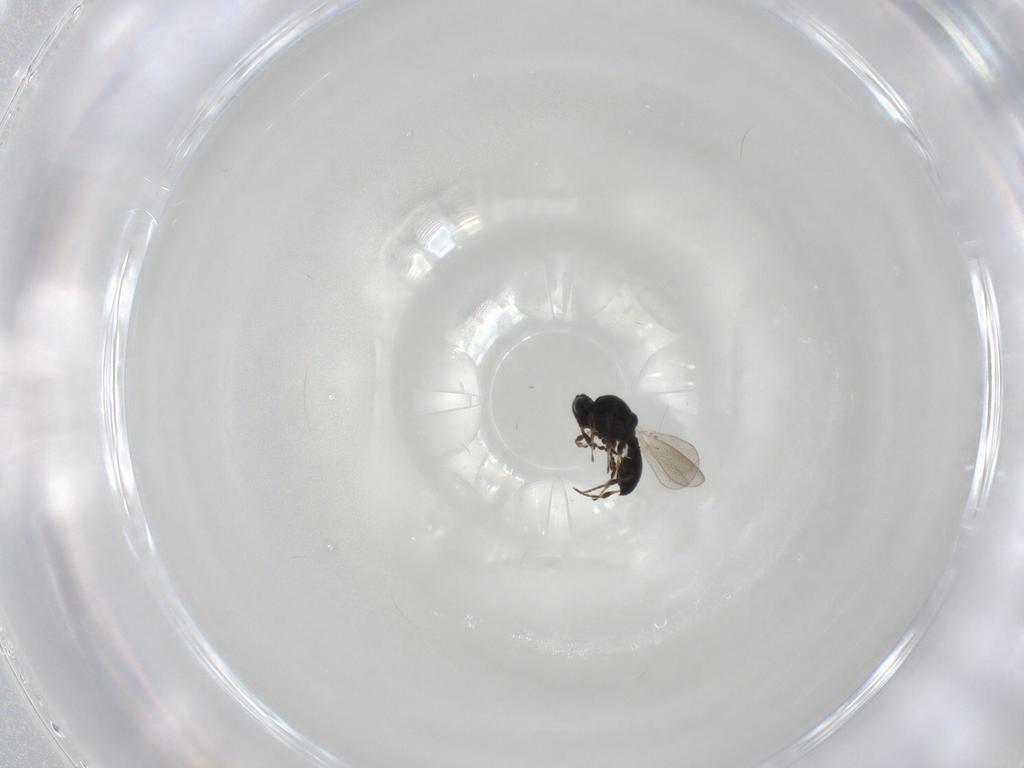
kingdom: Animalia
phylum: Arthropoda
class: Insecta
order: Hymenoptera
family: Platygastridae
